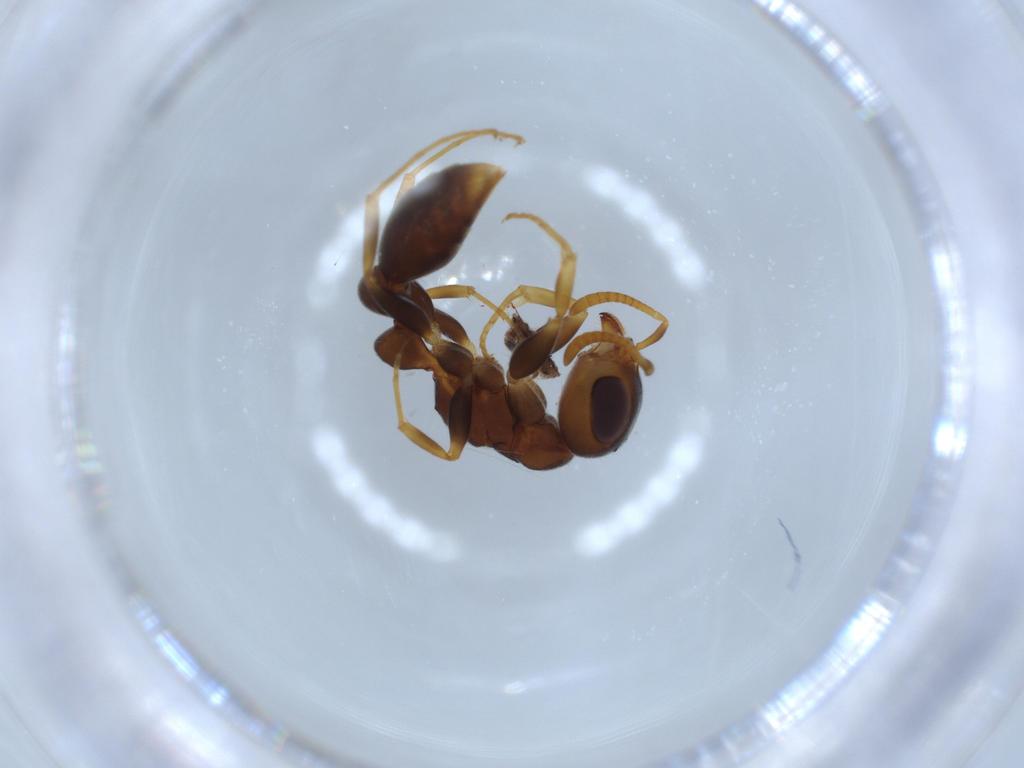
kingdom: Animalia
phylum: Arthropoda
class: Insecta
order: Hymenoptera
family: Formicidae
